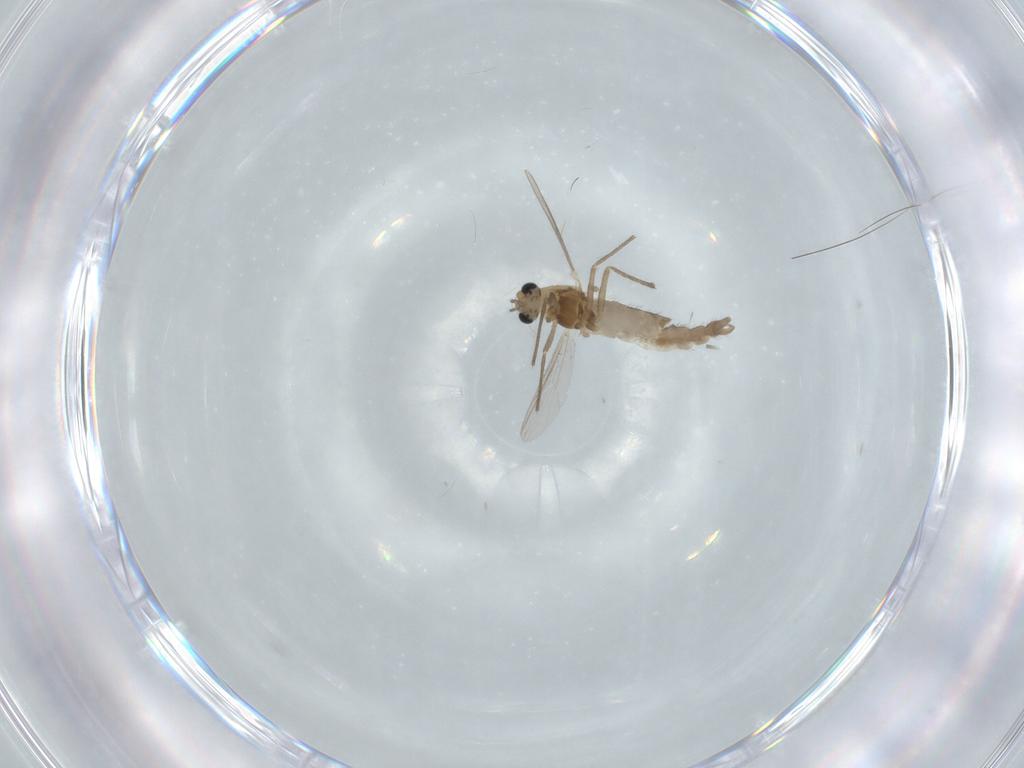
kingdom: Animalia
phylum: Arthropoda
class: Insecta
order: Diptera
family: Chironomidae
